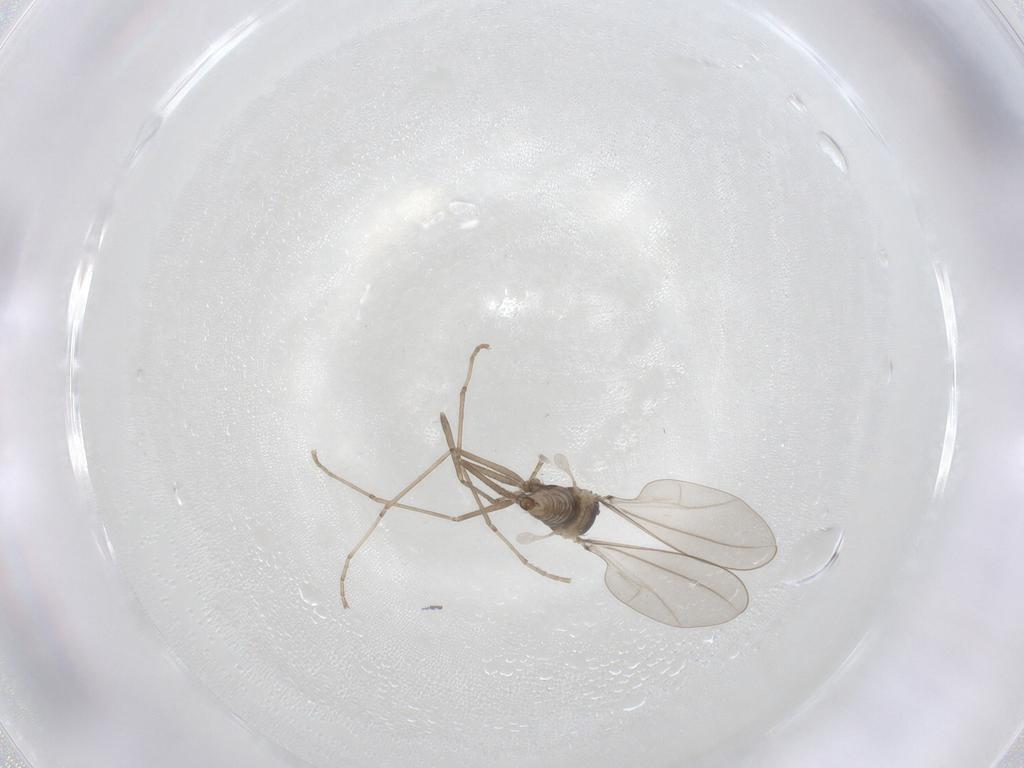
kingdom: Animalia
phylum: Arthropoda
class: Insecta
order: Diptera
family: Cecidomyiidae
